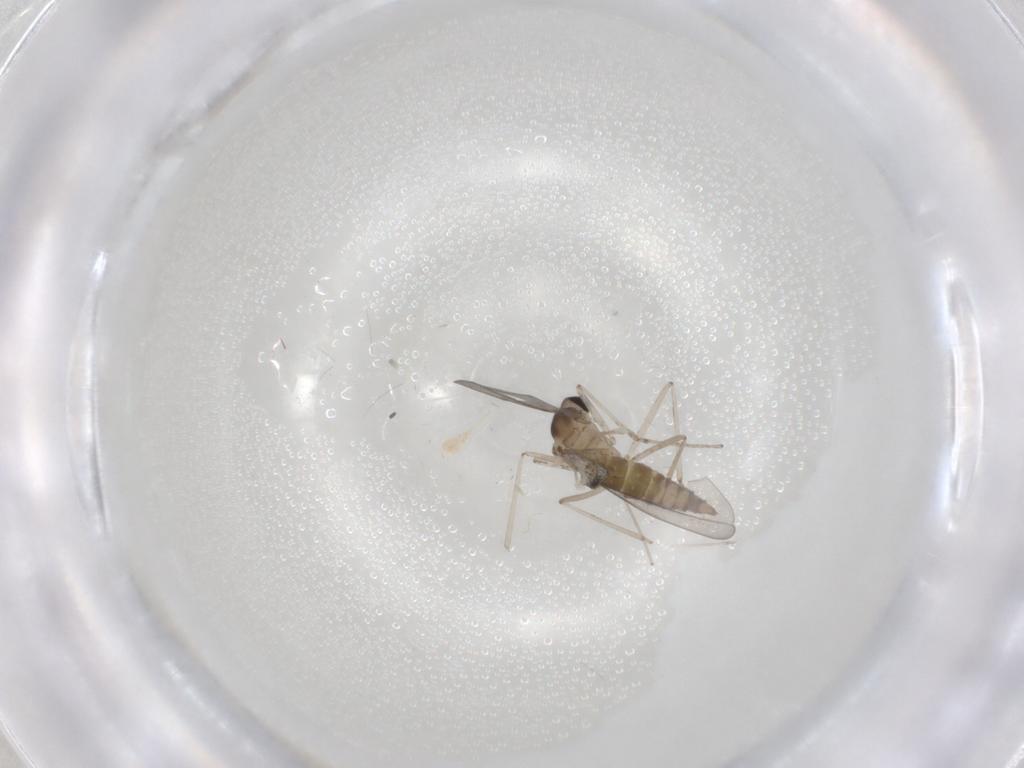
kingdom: Animalia
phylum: Arthropoda
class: Insecta
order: Diptera
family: Cecidomyiidae
